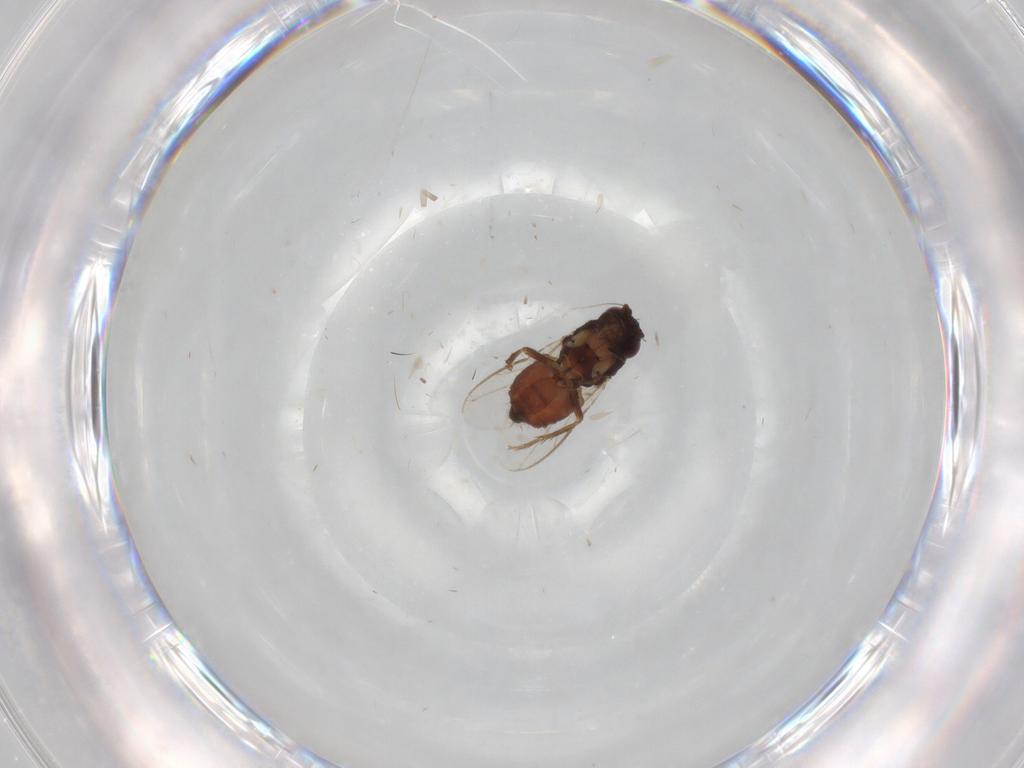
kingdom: Animalia
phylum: Arthropoda
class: Insecta
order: Diptera
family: Sphaeroceridae
